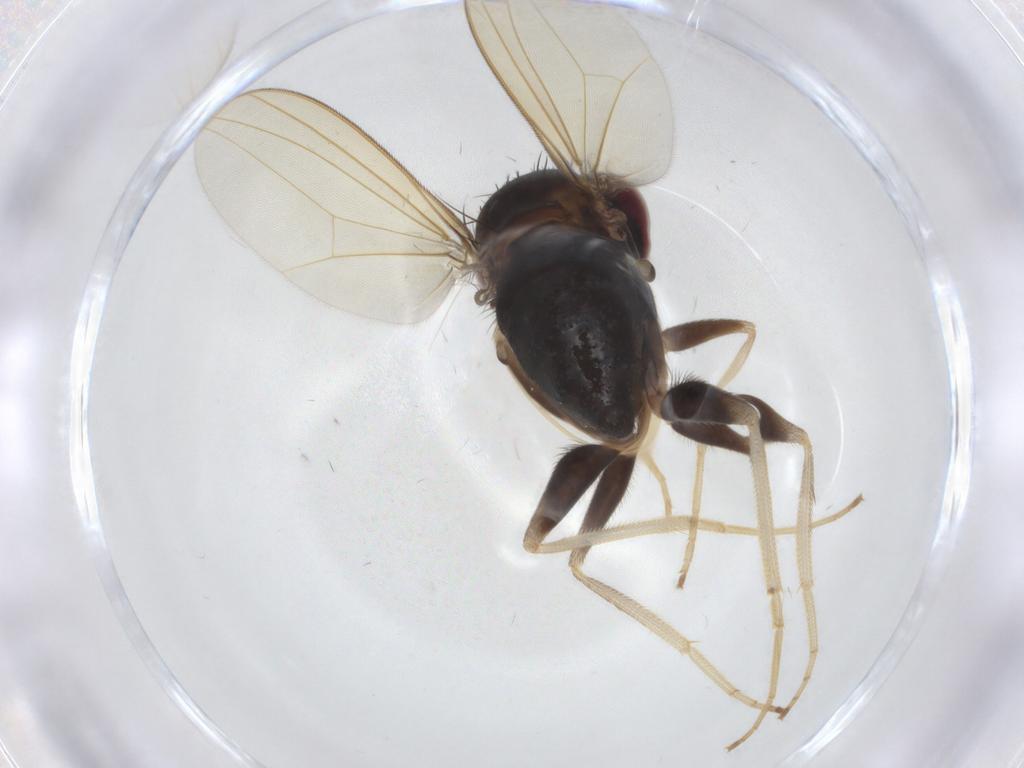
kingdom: Animalia
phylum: Arthropoda
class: Insecta
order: Diptera
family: Dolichopodidae
